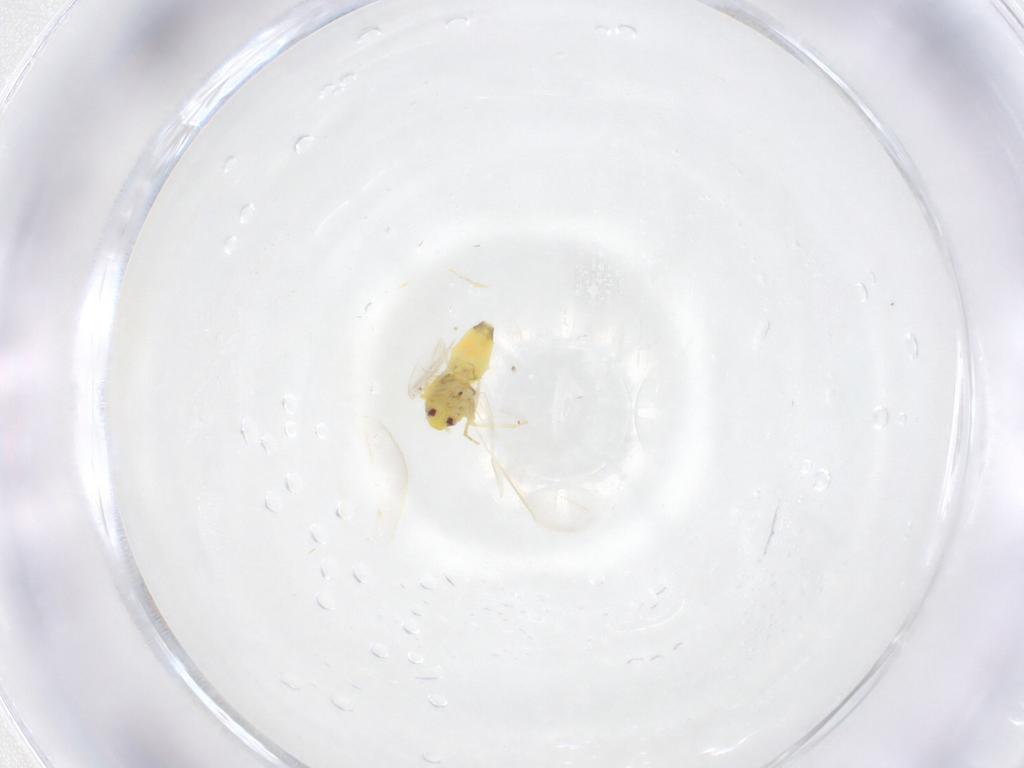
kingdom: Animalia
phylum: Arthropoda
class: Insecta
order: Hemiptera
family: Aleyrodidae
